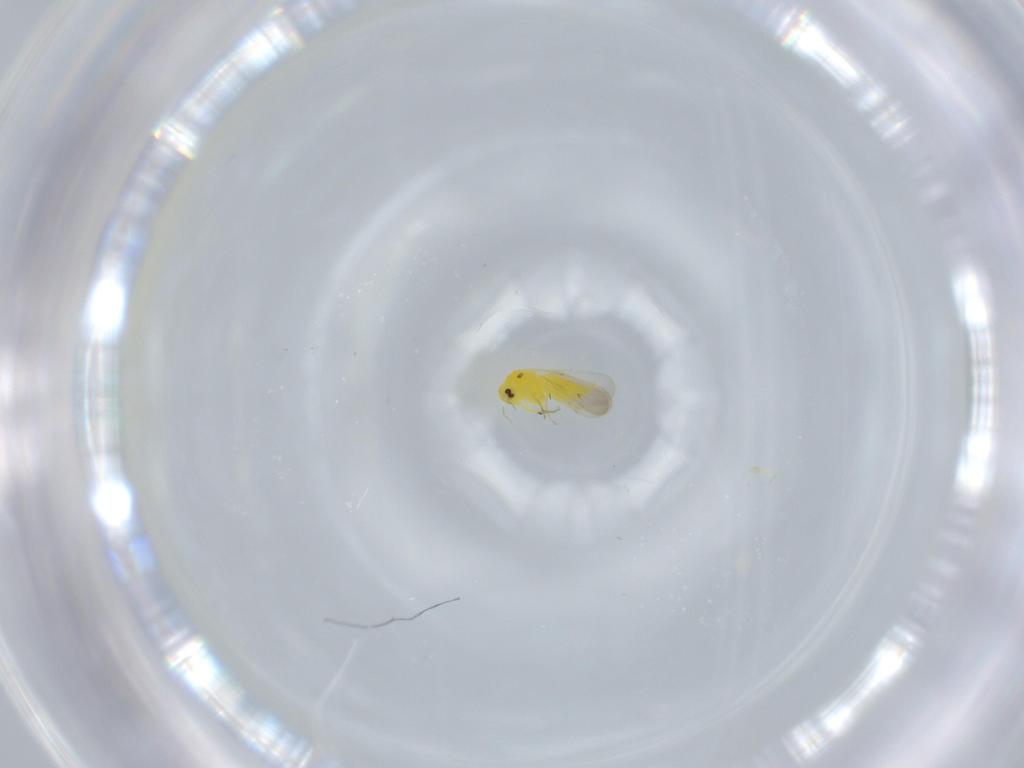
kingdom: Animalia
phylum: Arthropoda
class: Insecta
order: Hemiptera
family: Aleyrodidae
